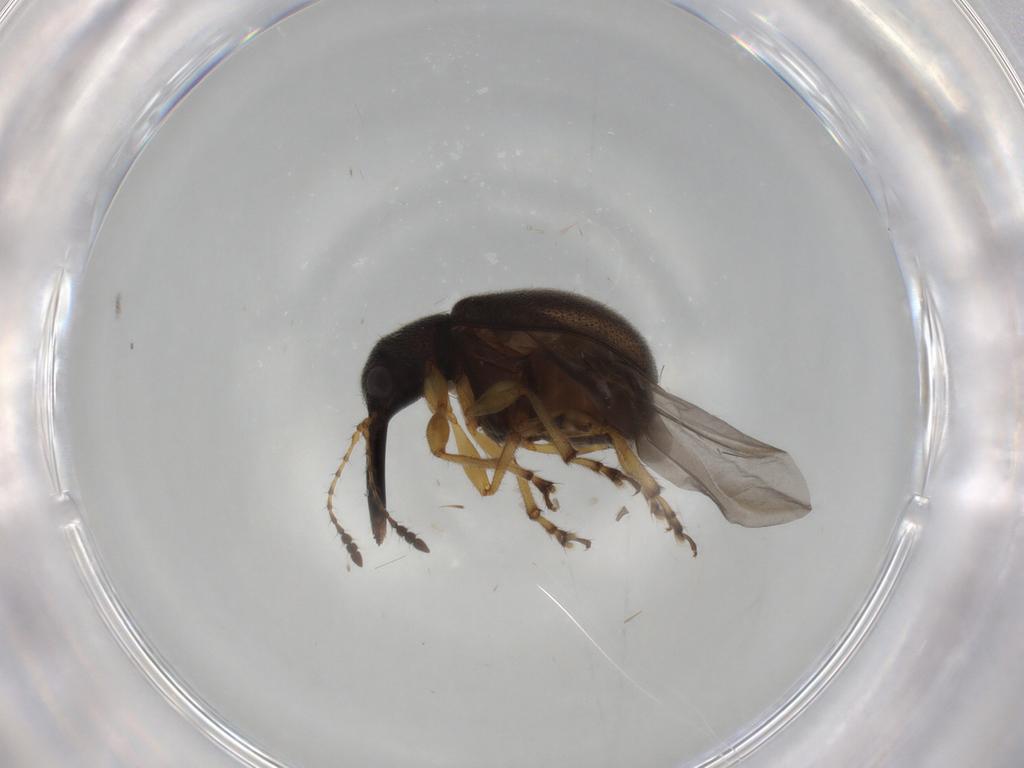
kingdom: Animalia
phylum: Arthropoda
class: Insecta
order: Coleoptera
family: Attelabidae
